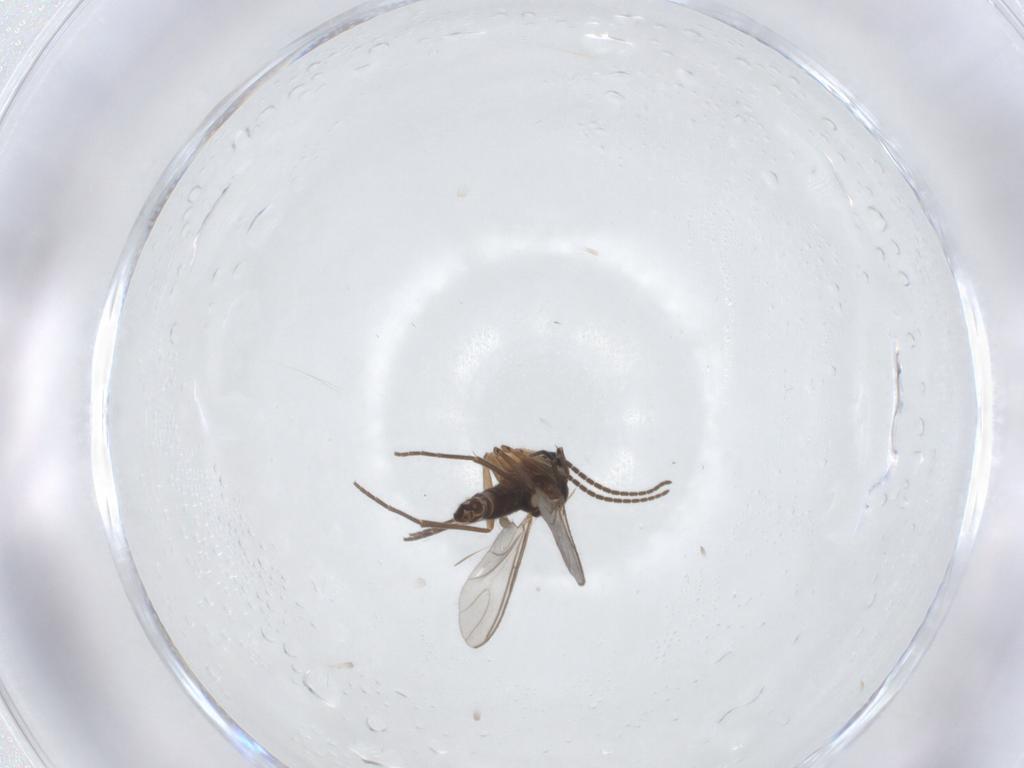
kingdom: Animalia
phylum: Arthropoda
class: Insecta
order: Diptera
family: Sciaridae
